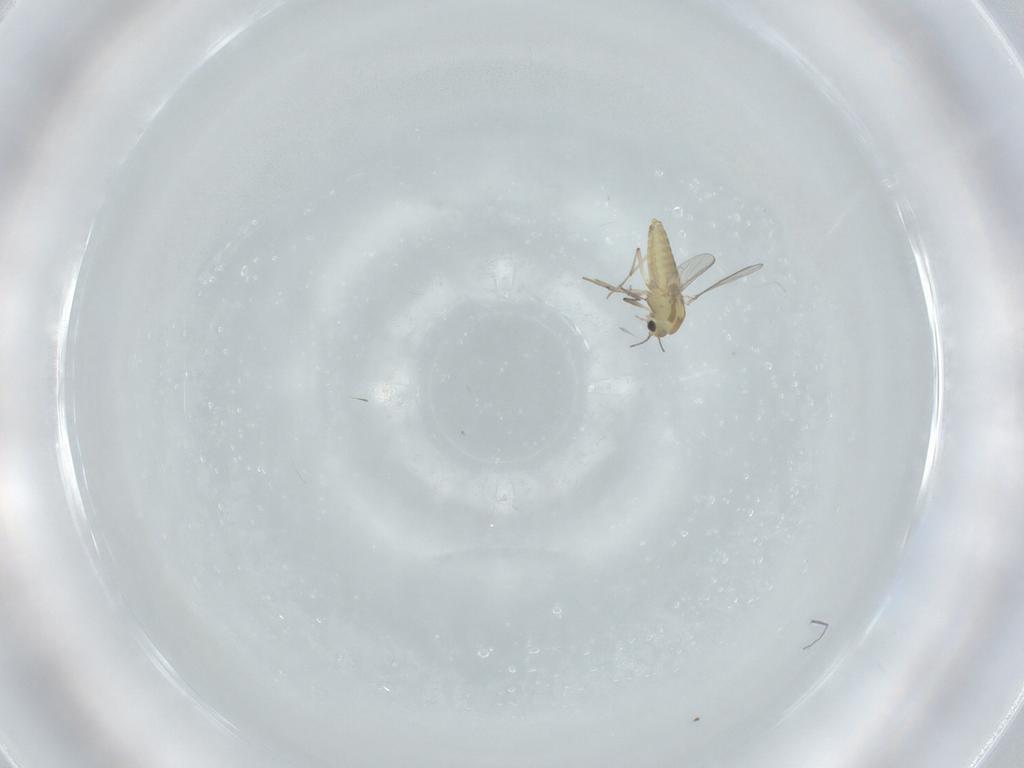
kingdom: Animalia
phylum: Arthropoda
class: Insecta
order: Diptera
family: Chironomidae
